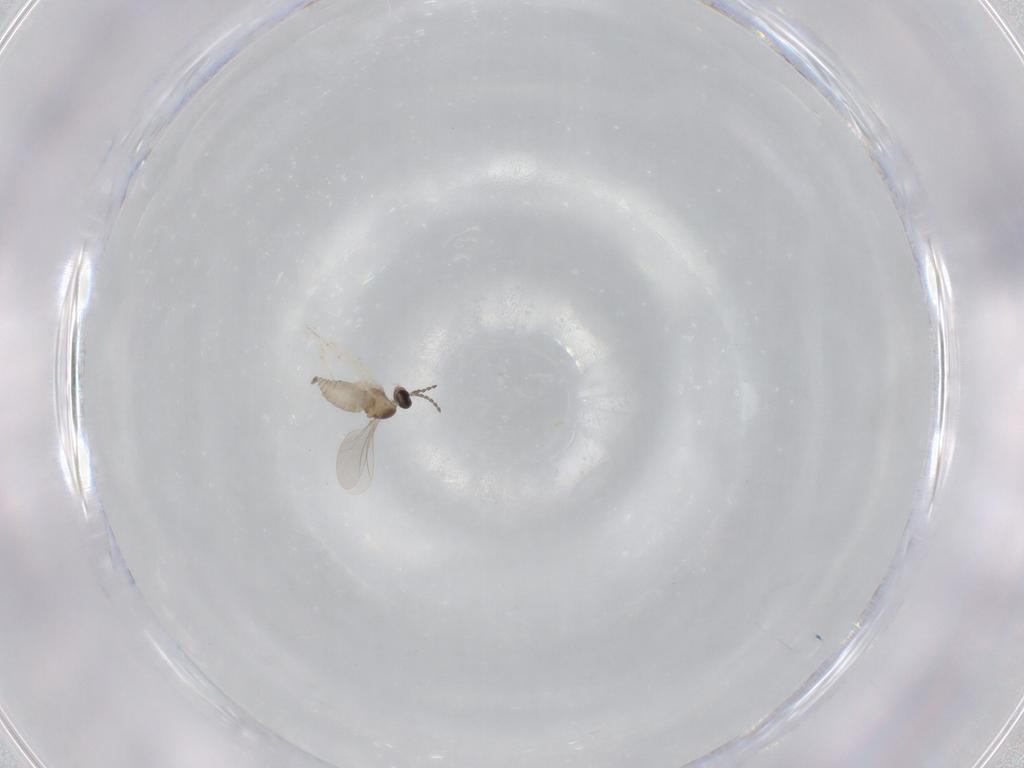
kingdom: Animalia
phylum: Arthropoda
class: Insecta
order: Diptera
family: Cecidomyiidae
